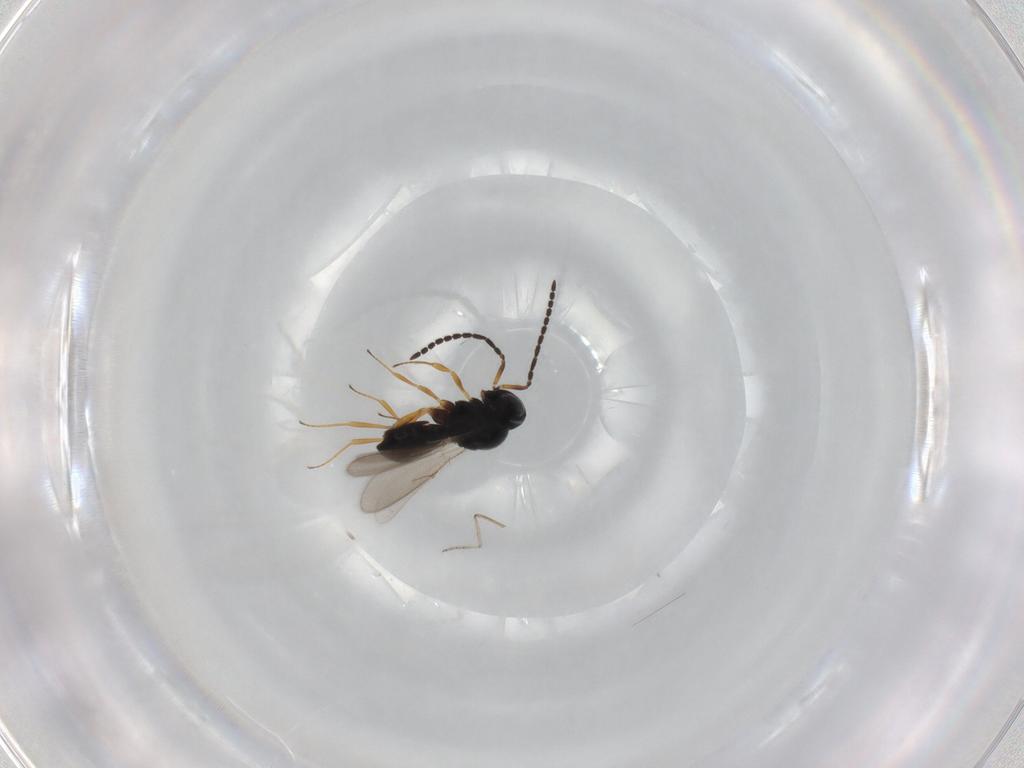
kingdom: Animalia
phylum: Arthropoda
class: Insecta
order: Hymenoptera
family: Scelionidae
